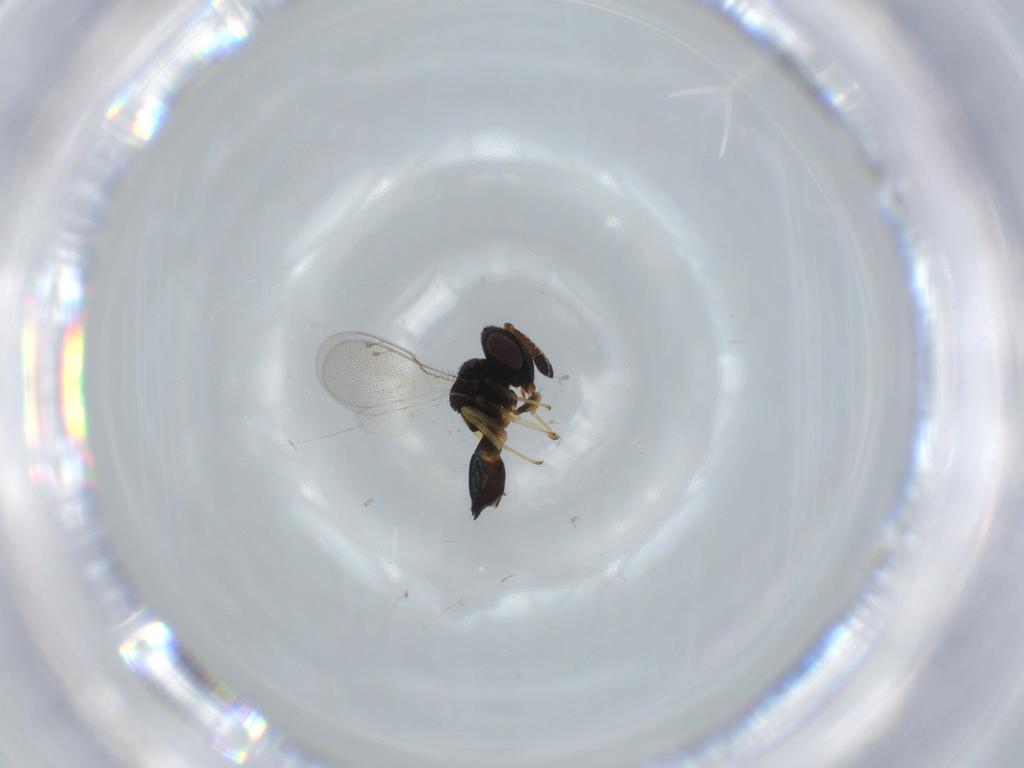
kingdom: Animalia
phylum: Arthropoda
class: Insecta
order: Hymenoptera
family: Pteromalidae
